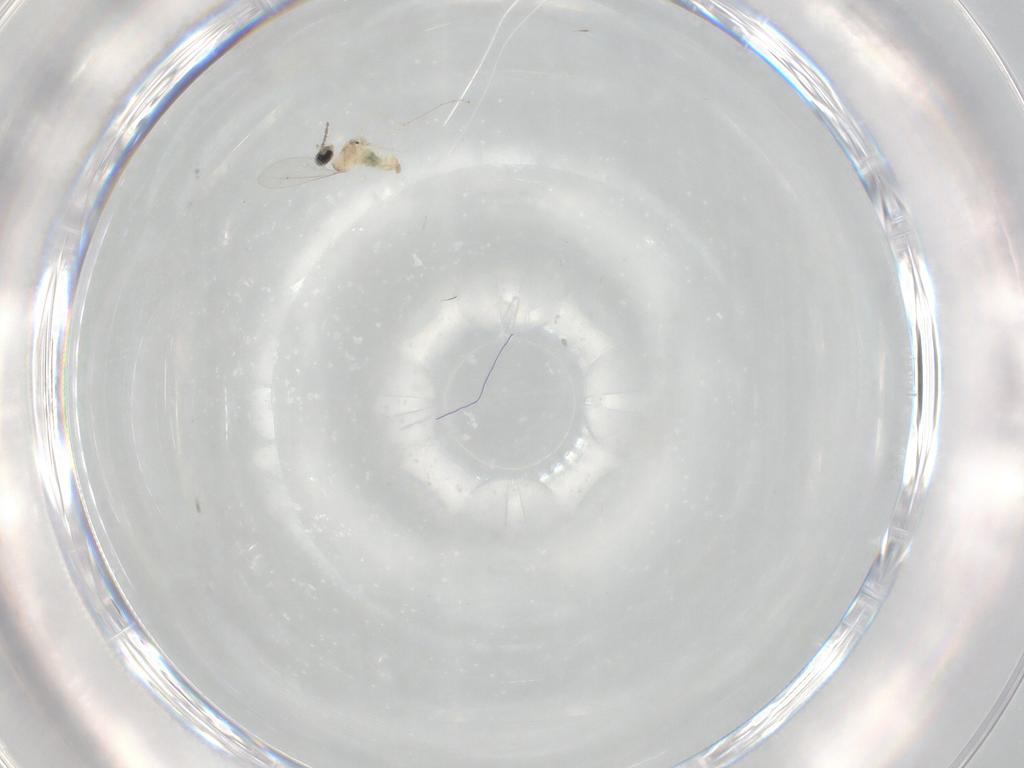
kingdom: Animalia
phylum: Arthropoda
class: Insecta
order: Diptera
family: Cecidomyiidae
